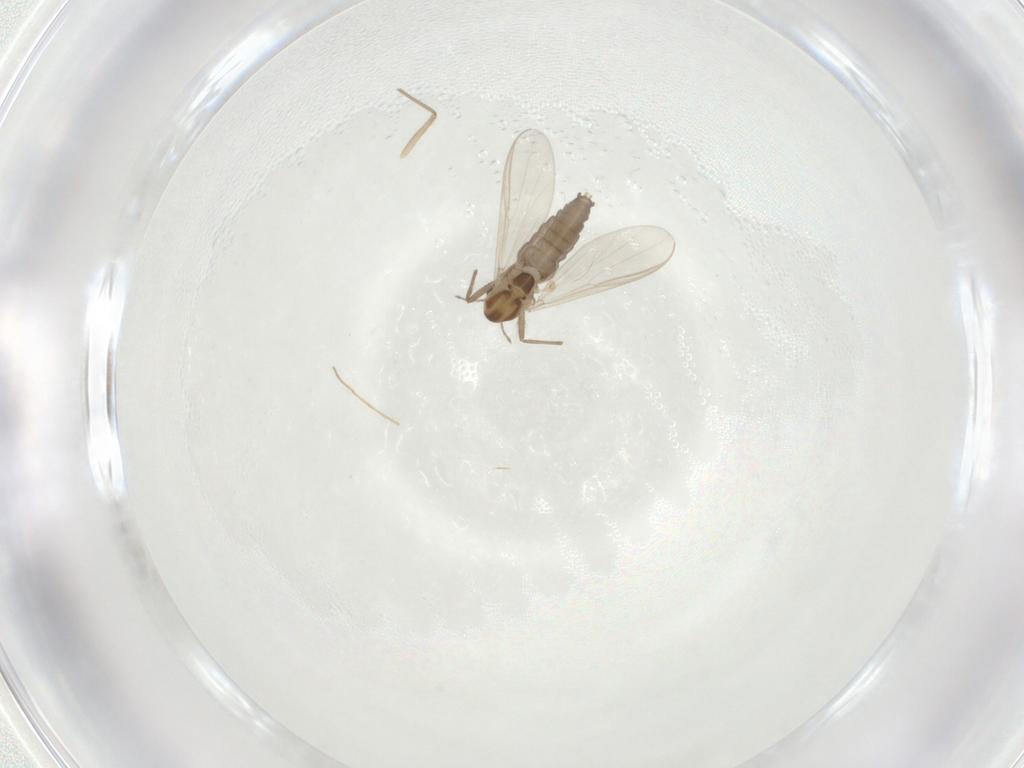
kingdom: Animalia
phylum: Arthropoda
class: Insecta
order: Diptera
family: Chironomidae
